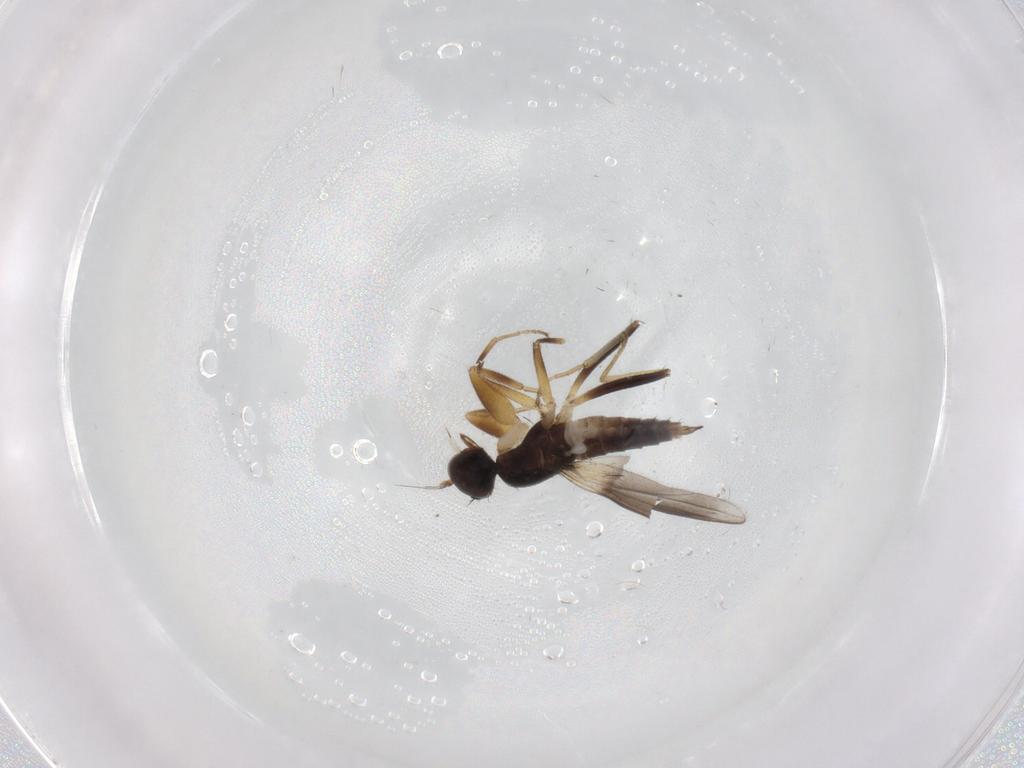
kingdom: Animalia
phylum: Arthropoda
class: Insecta
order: Diptera
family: Hybotidae
